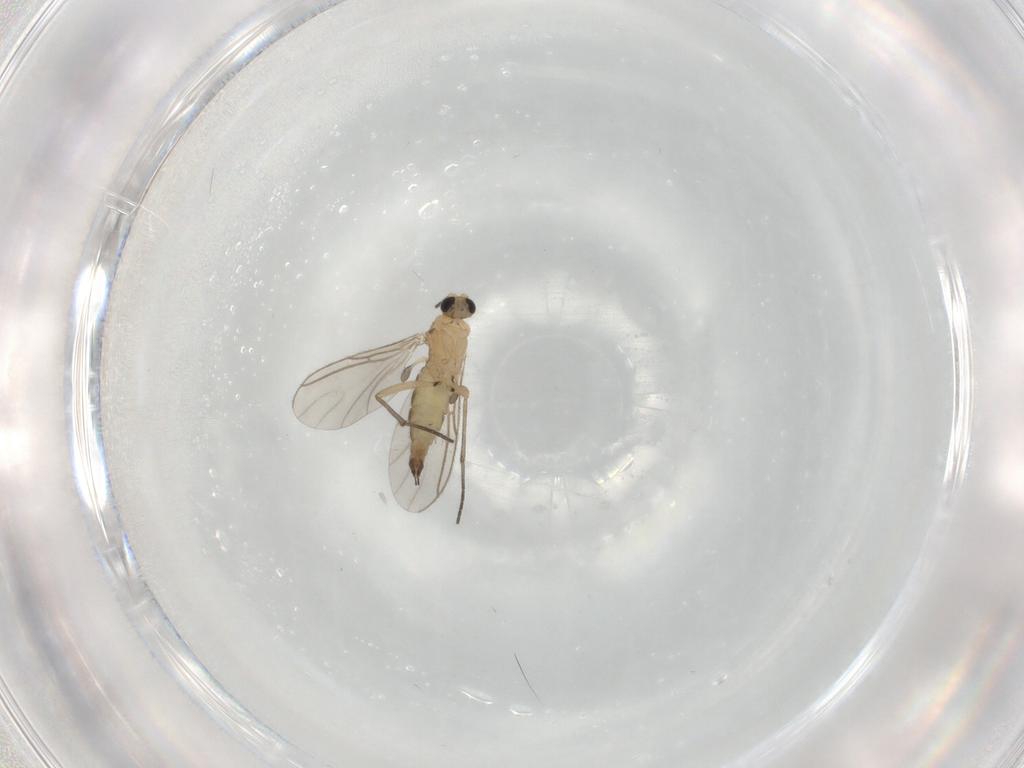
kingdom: Animalia
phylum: Arthropoda
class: Insecta
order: Diptera
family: Cecidomyiidae
